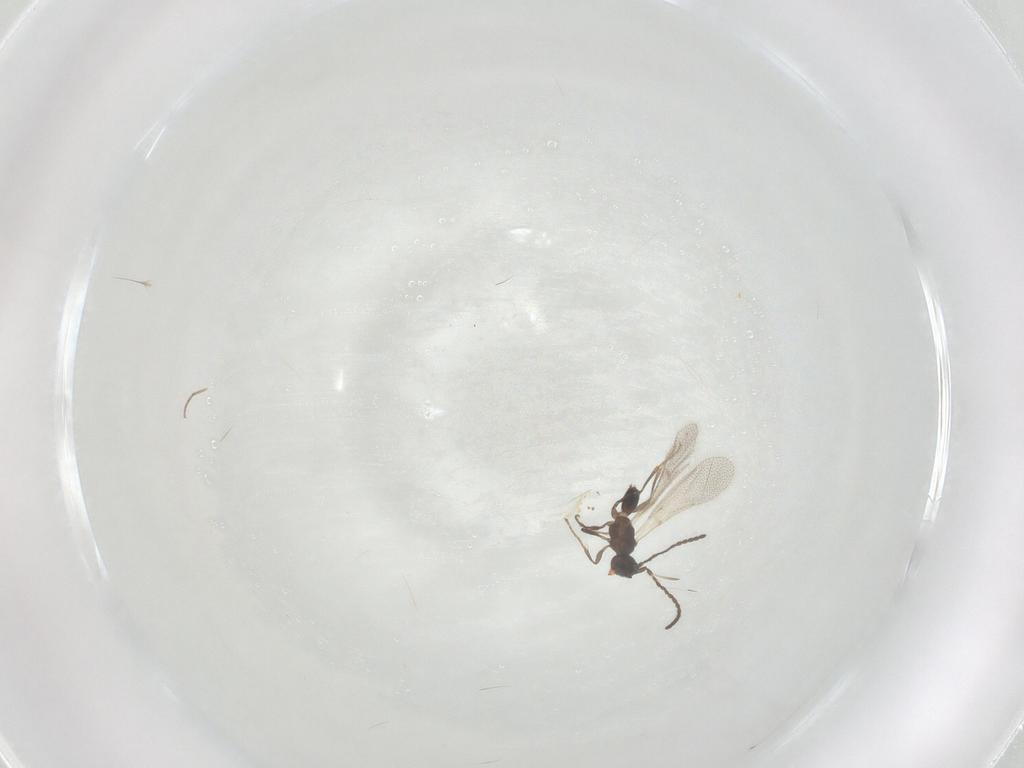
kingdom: Animalia
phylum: Arthropoda
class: Insecta
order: Hymenoptera
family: Diapriidae
